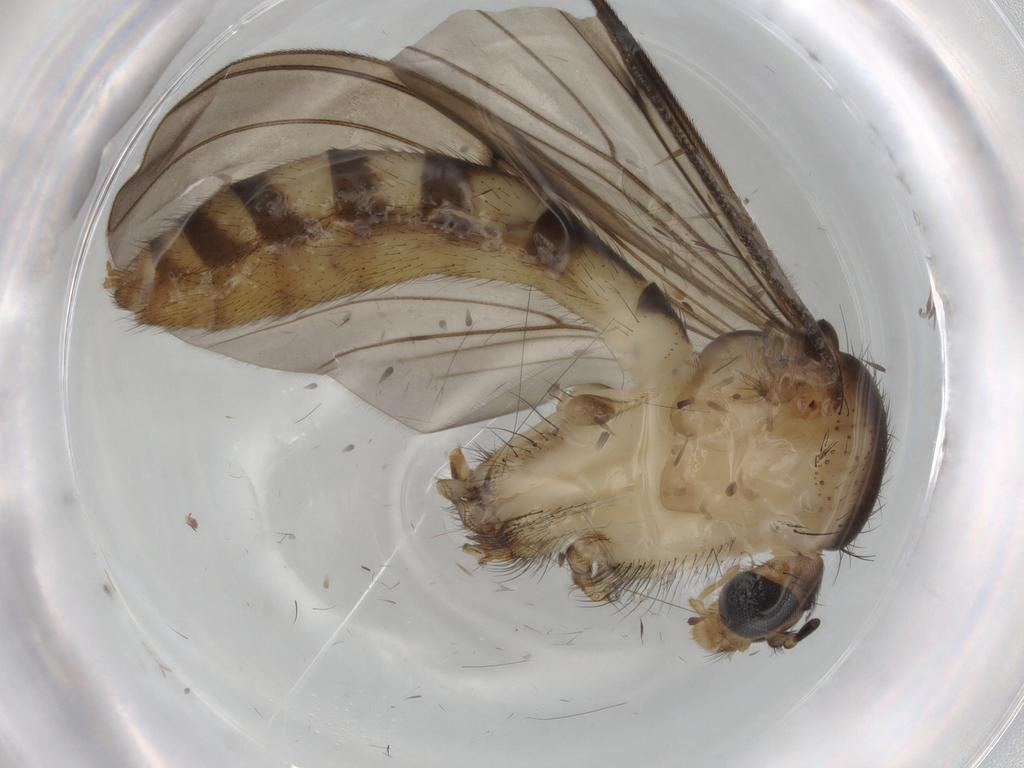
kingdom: Animalia
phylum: Arthropoda
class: Insecta
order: Diptera
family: Mycetophilidae
